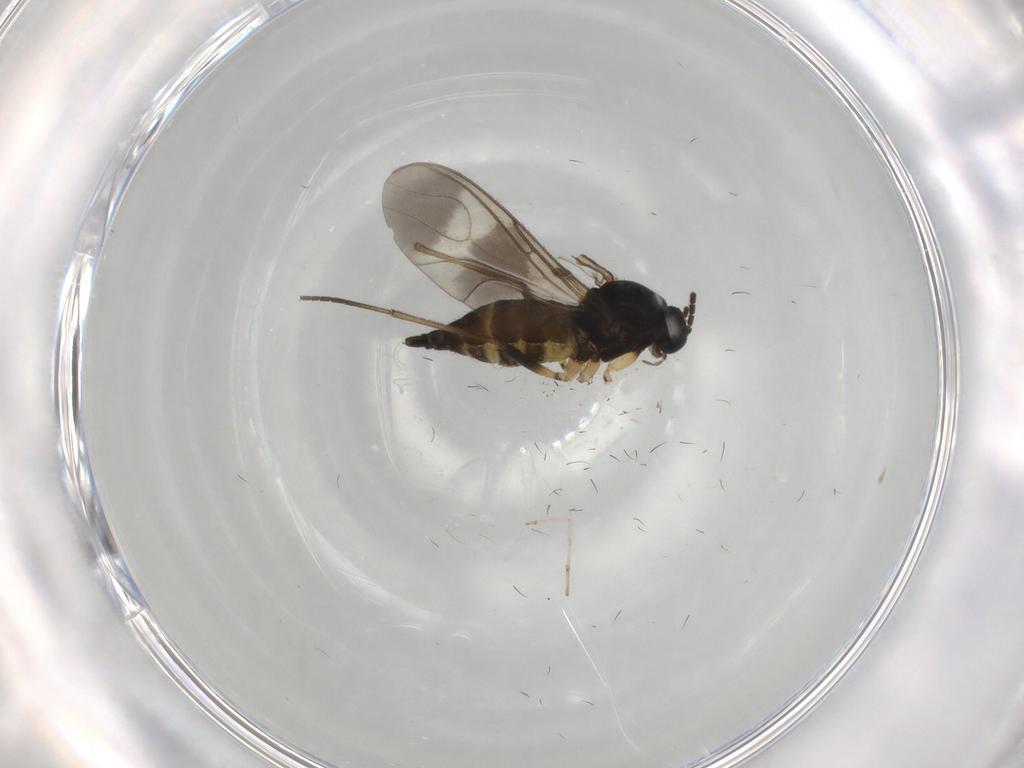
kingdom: Animalia
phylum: Arthropoda
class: Insecta
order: Diptera
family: Sciaridae
